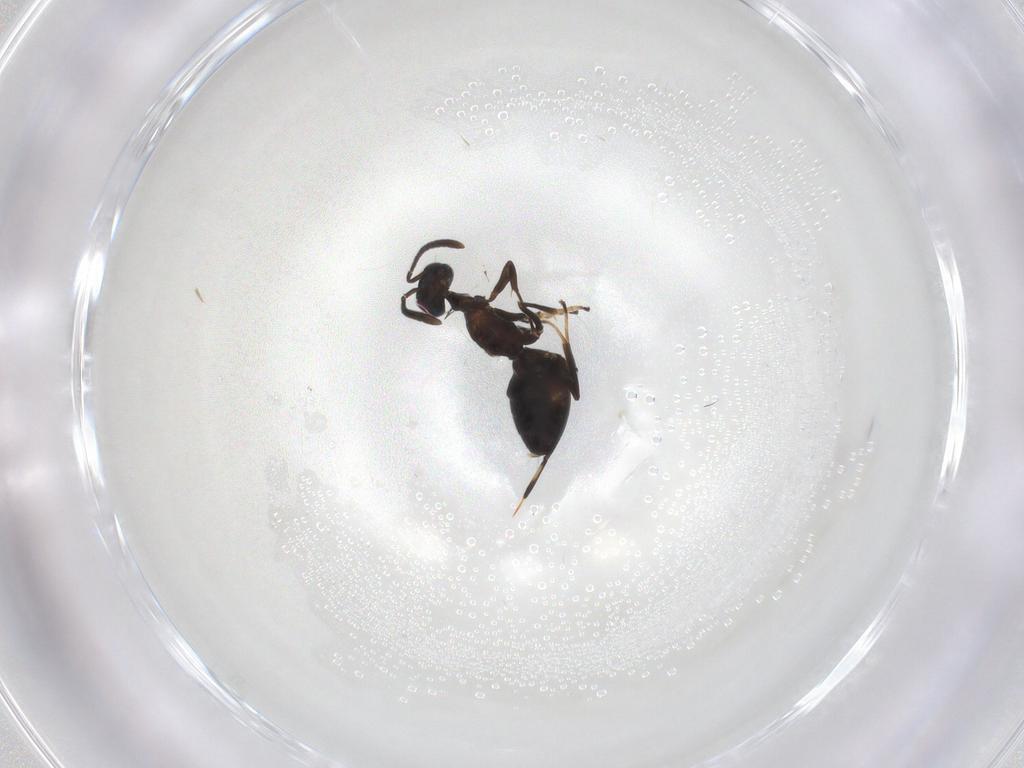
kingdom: Animalia
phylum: Arthropoda
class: Insecta
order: Hymenoptera
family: Eupelmidae
